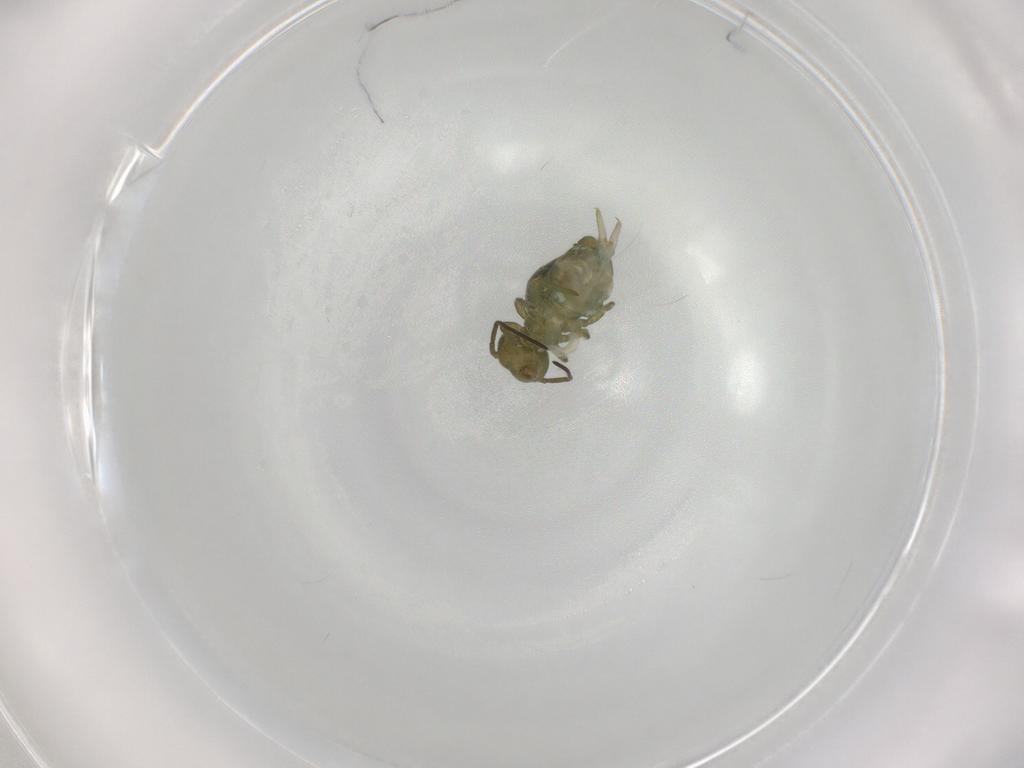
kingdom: Animalia
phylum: Arthropoda
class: Collembola
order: Symphypleona
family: Sminthuridae
